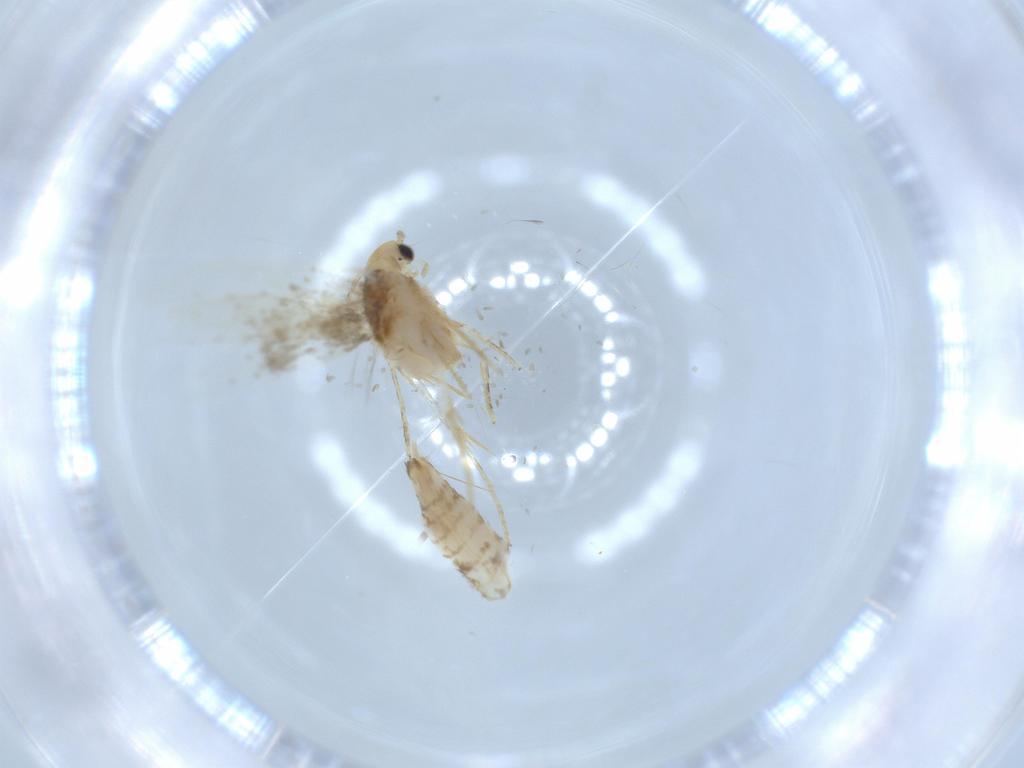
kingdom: Animalia
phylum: Arthropoda
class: Insecta
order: Lepidoptera
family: Tineidae
